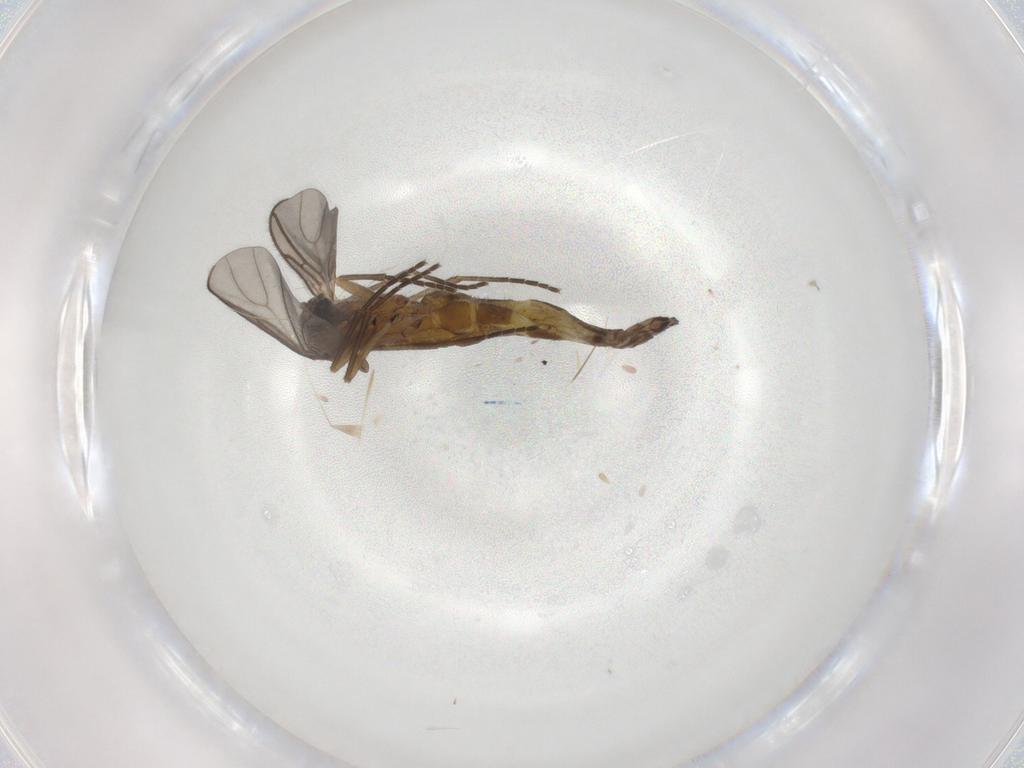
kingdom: Animalia
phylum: Arthropoda
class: Insecta
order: Diptera
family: Sciaridae
